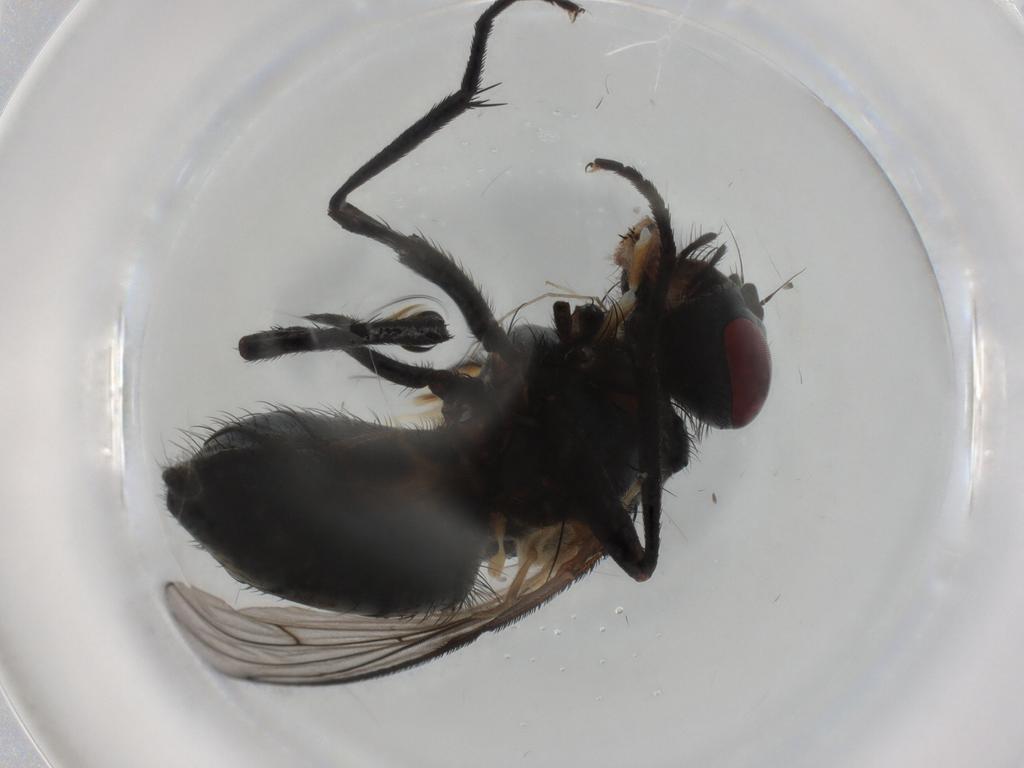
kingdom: Animalia
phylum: Arthropoda
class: Insecta
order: Diptera
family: Muscidae
